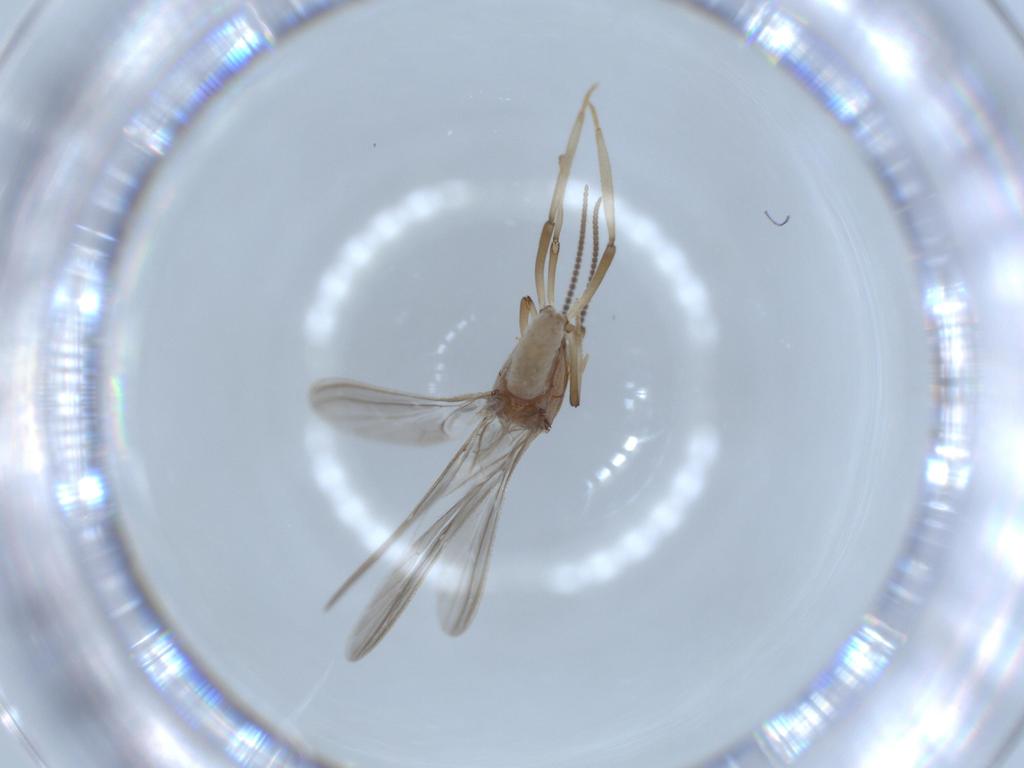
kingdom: Animalia
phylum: Arthropoda
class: Insecta
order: Neuroptera
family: Coniopterygidae
